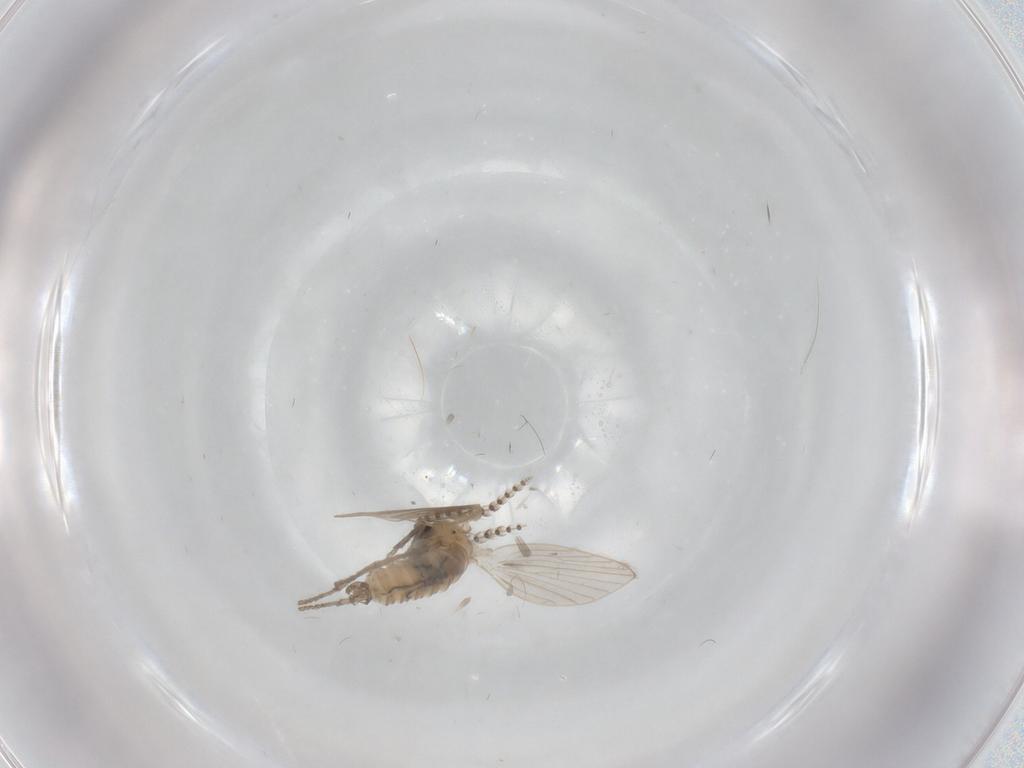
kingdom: Animalia
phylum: Arthropoda
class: Insecta
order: Diptera
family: Psychodidae
